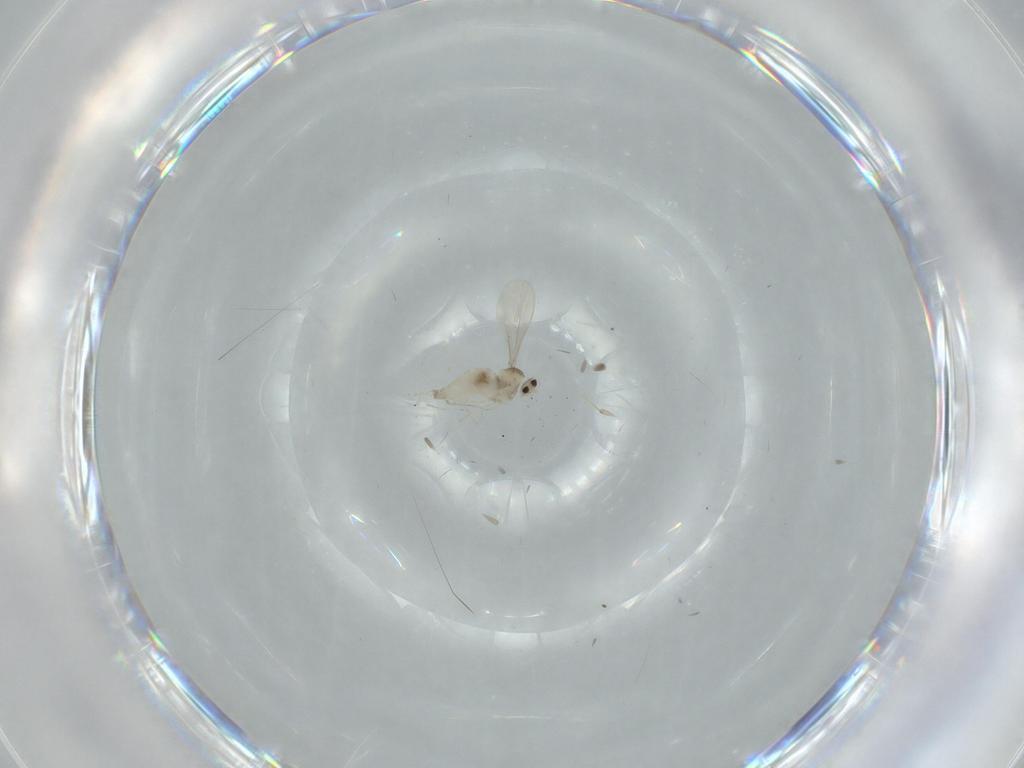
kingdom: Animalia
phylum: Arthropoda
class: Insecta
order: Diptera
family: Cecidomyiidae
